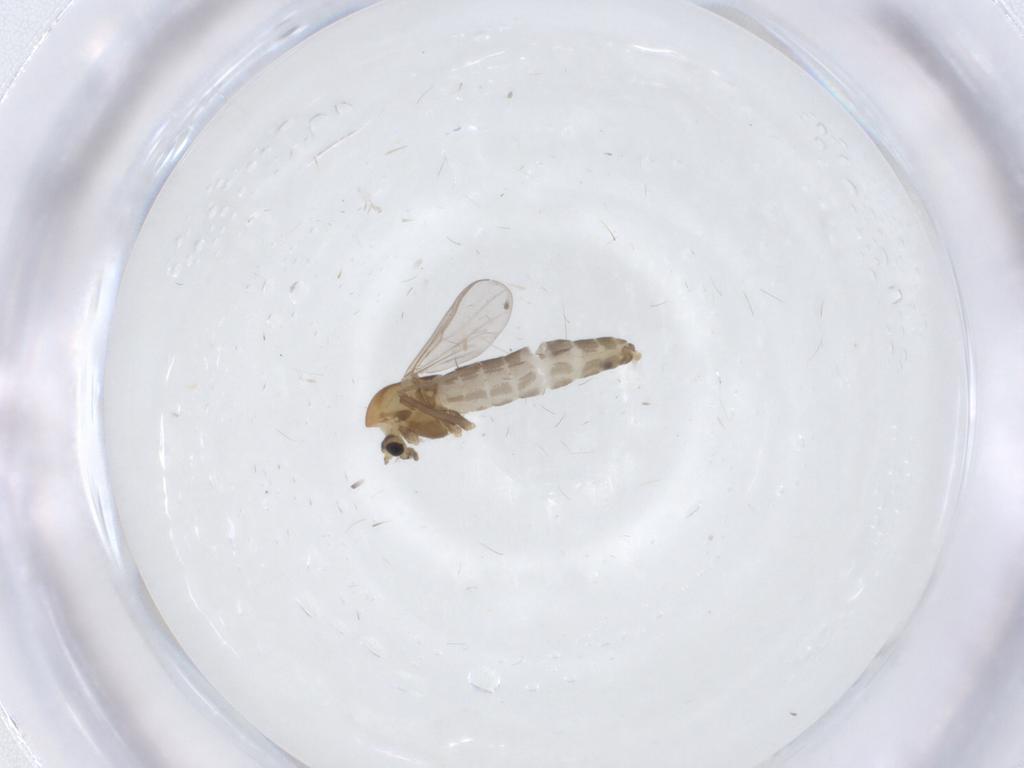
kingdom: Animalia
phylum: Arthropoda
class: Insecta
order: Diptera
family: Chironomidae
